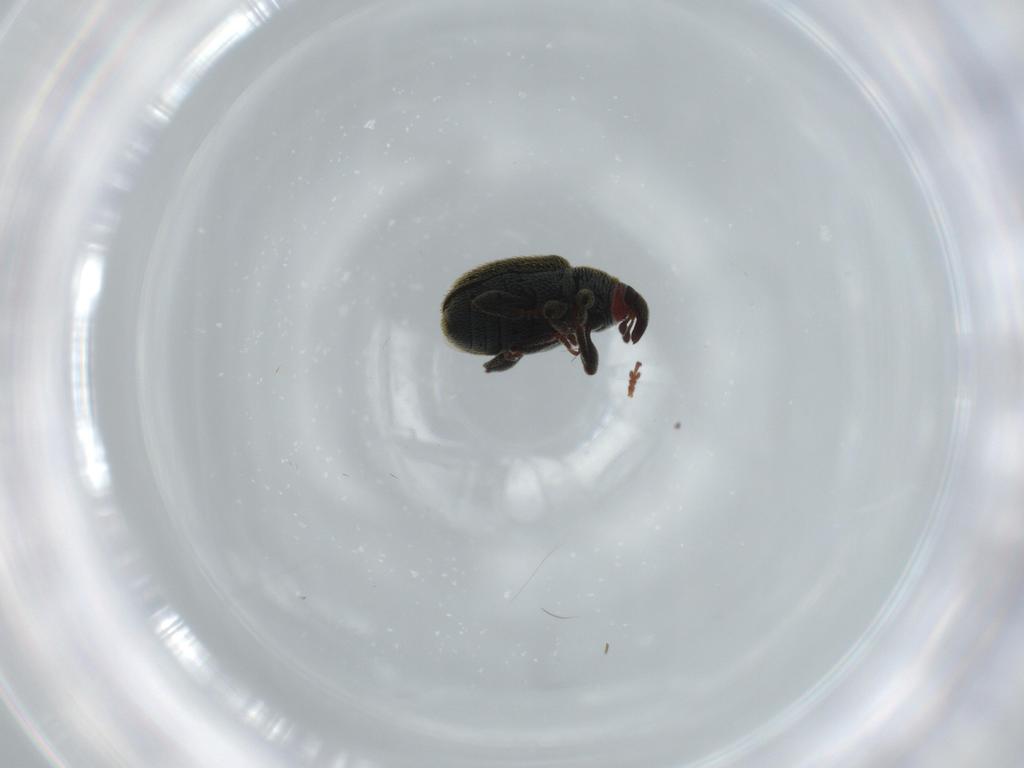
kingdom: Animalia
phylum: Arthropoda
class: Insecta
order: Coleoptera
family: Curculionidae
